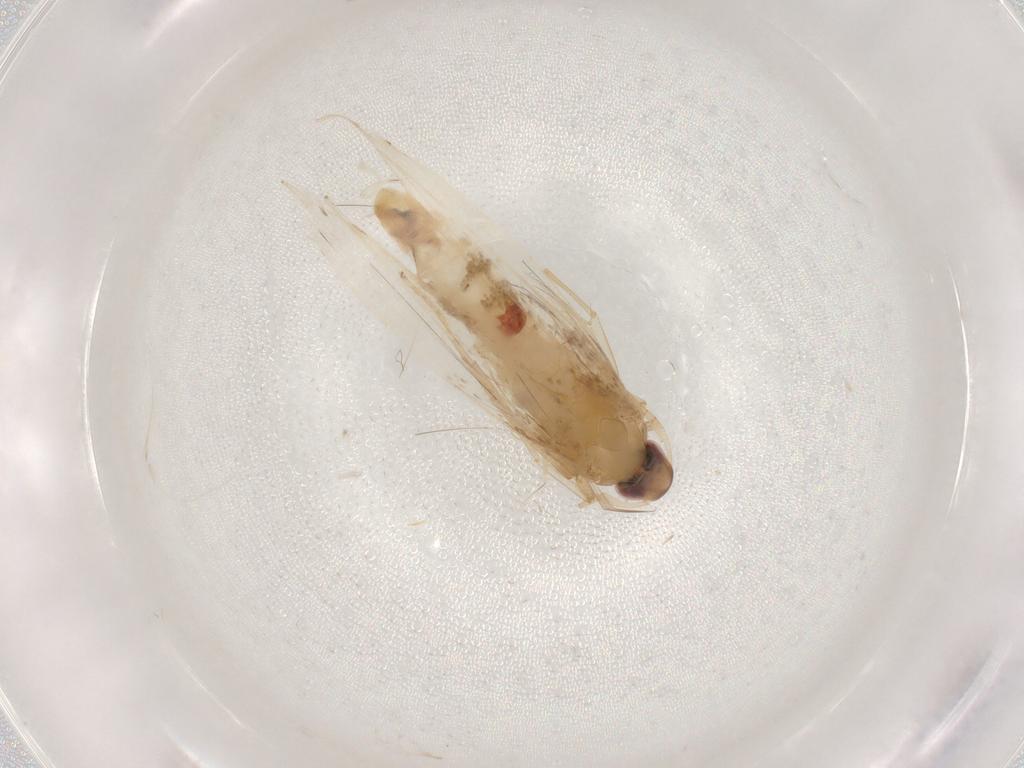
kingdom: Animalia
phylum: Arthropoda
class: Insecta
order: Lepidoptera
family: Cosmopterigidae
